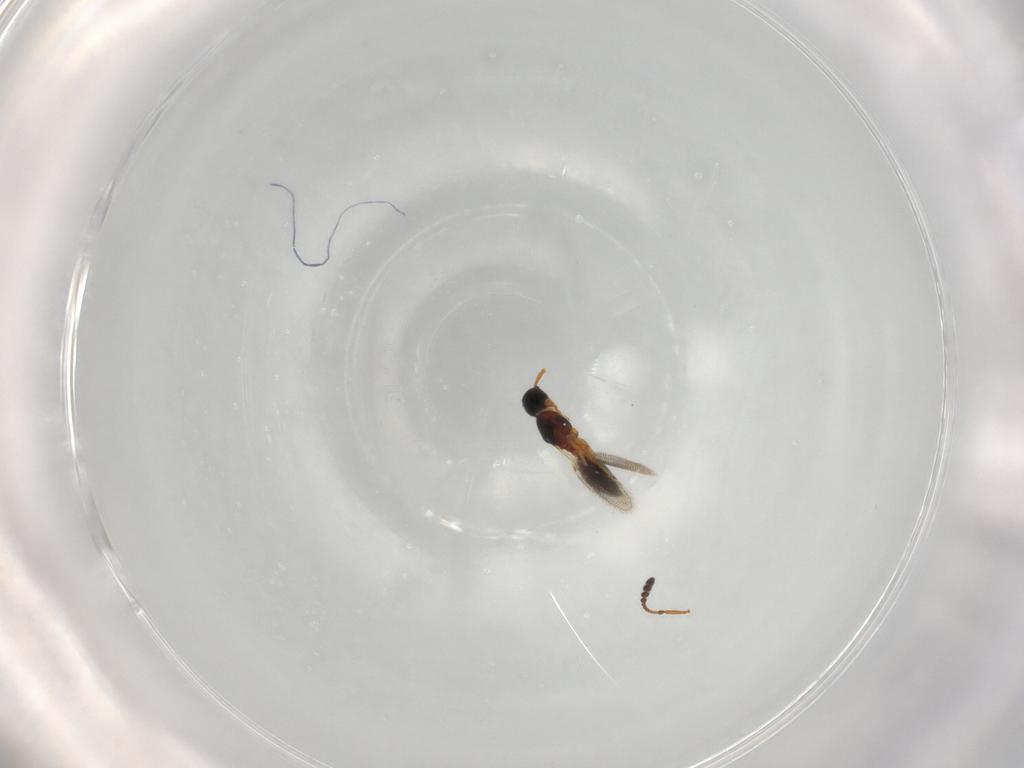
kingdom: Animalia
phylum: Arthropoda
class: Insecta
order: Hymenoptera
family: Diapriidae
